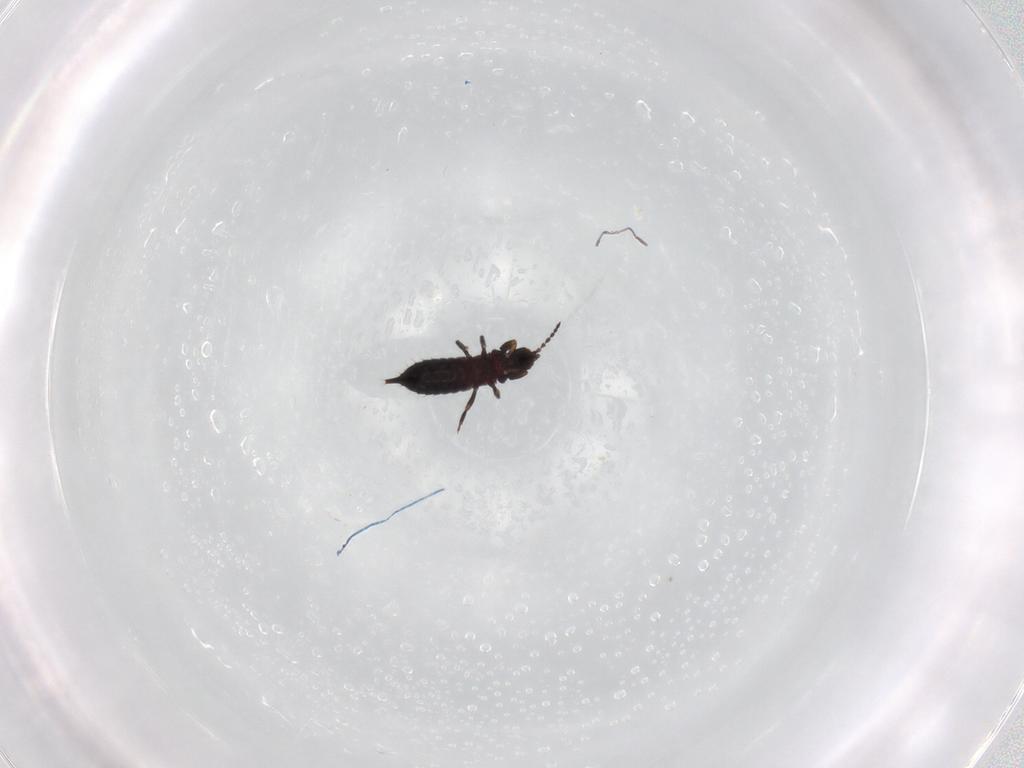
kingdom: Animalia
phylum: Arthropoda
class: Insecta
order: Thysanoptera
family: Phlaeothripidae
